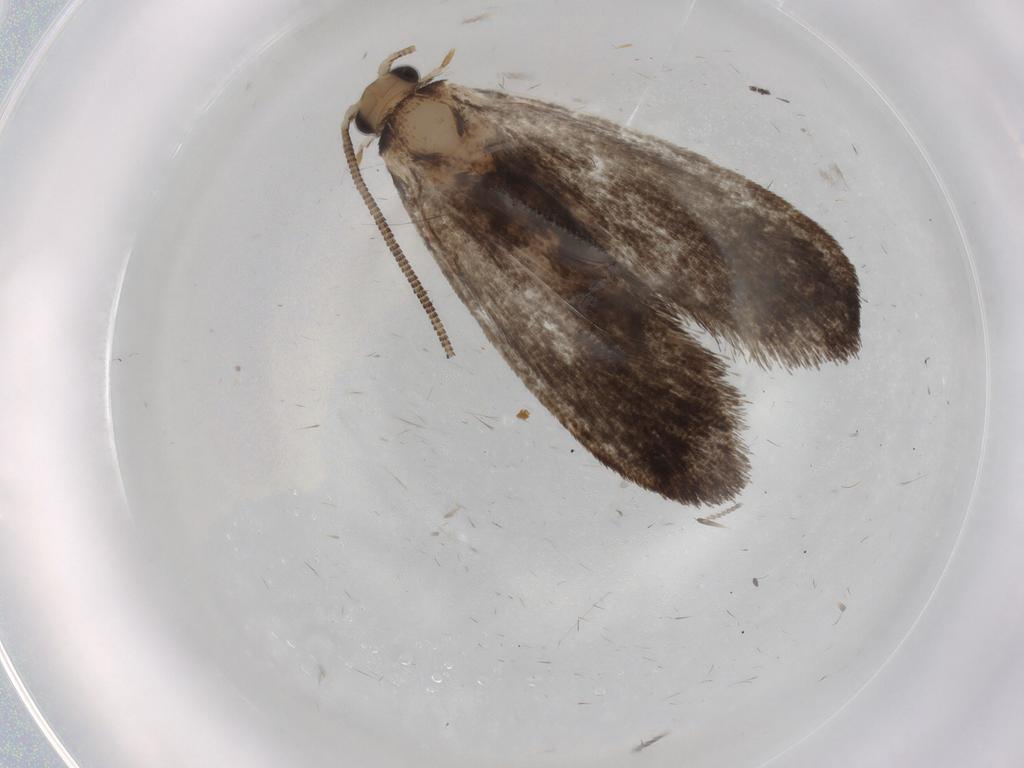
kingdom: Animalia
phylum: Arthropoda
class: Insecta
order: Lepidoptera
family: Tineidae
